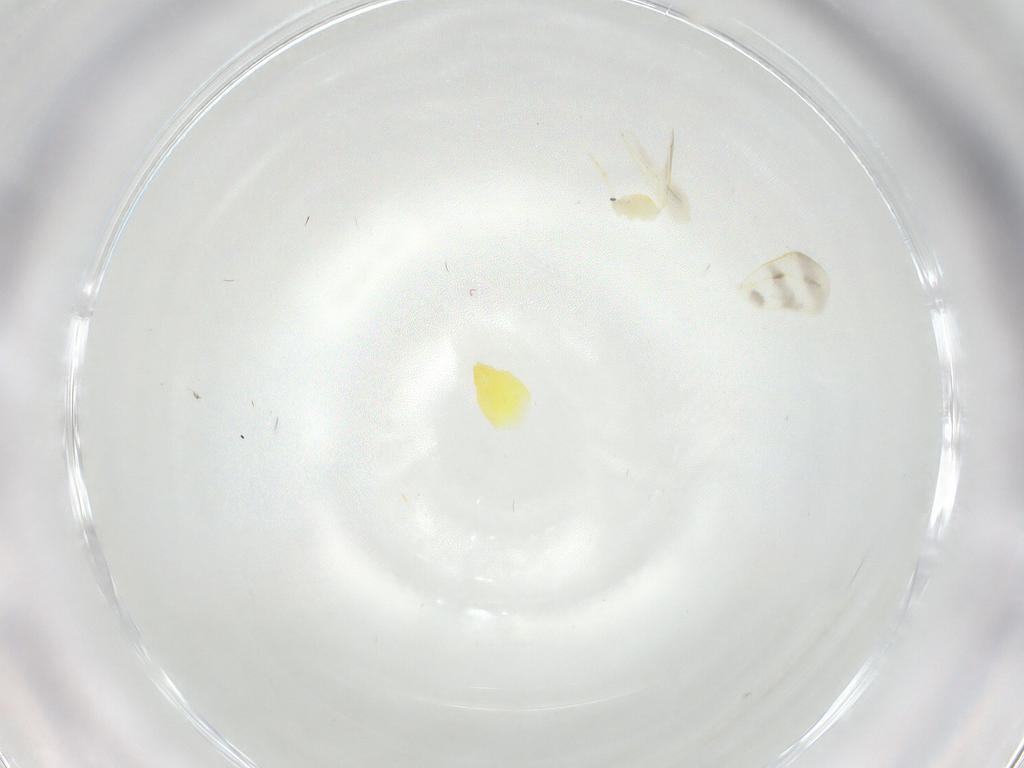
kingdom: Animalia
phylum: Arthropoda
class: Insecta
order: Hemiptera
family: Aleyrodidae
